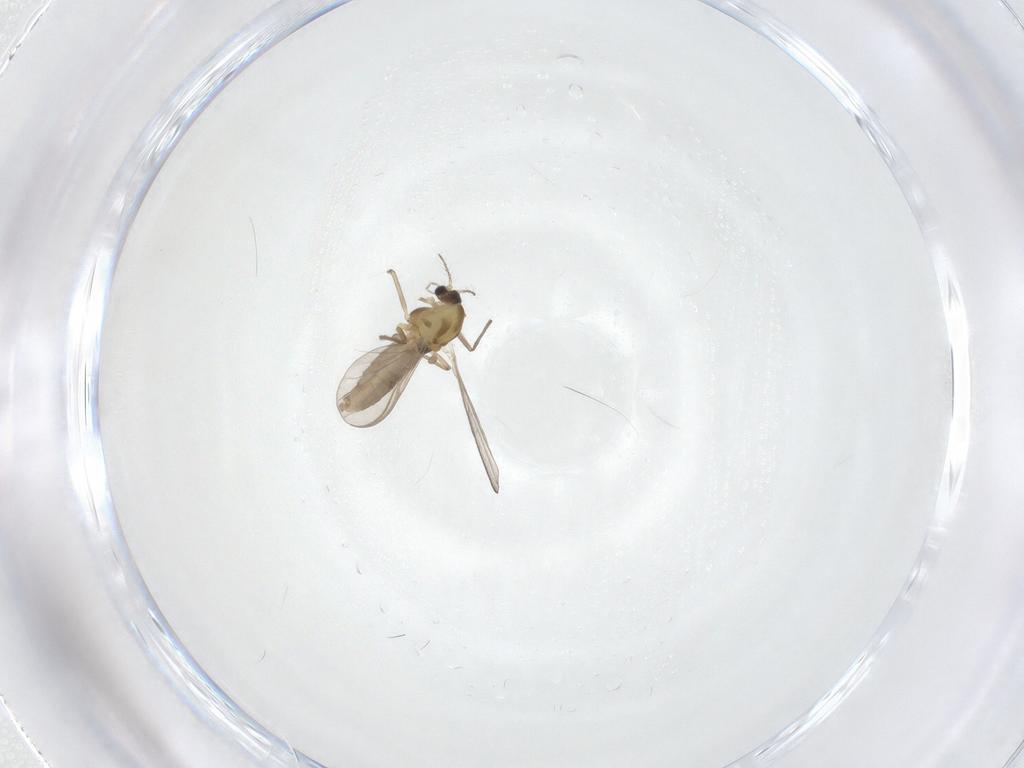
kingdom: Animalia
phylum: Arthropoda
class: Insecta
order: Diptera
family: Chironomidae
